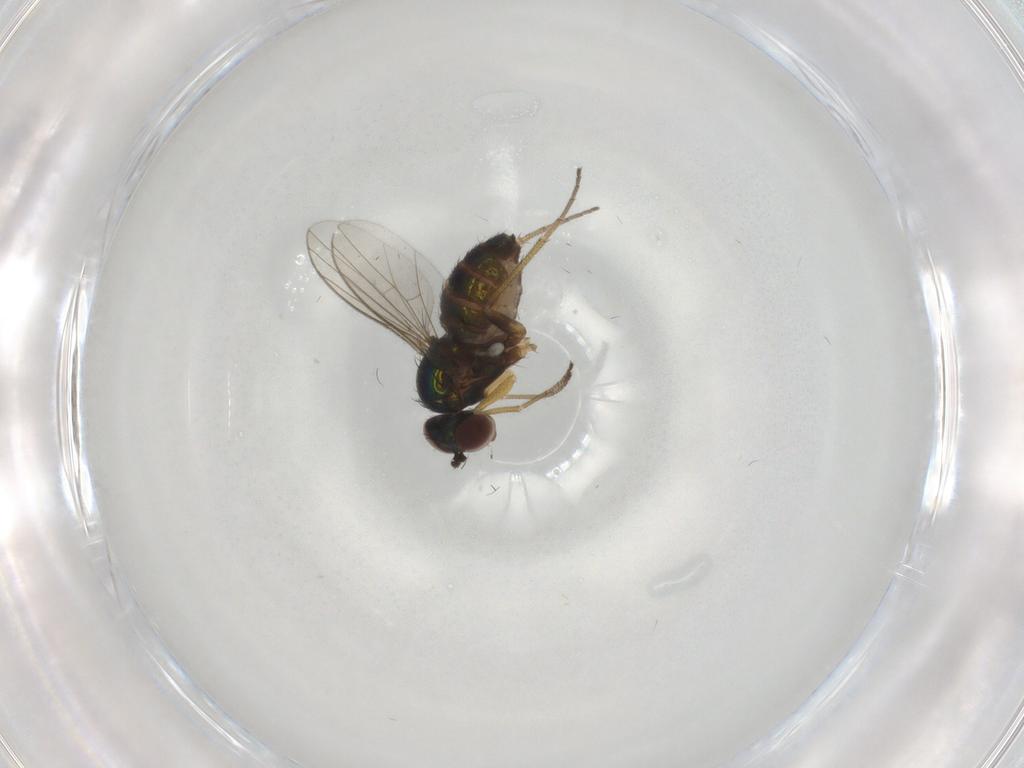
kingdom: Animalia
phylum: Arthropoda
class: Insecta
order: Diptera
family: Dolichopodidae
